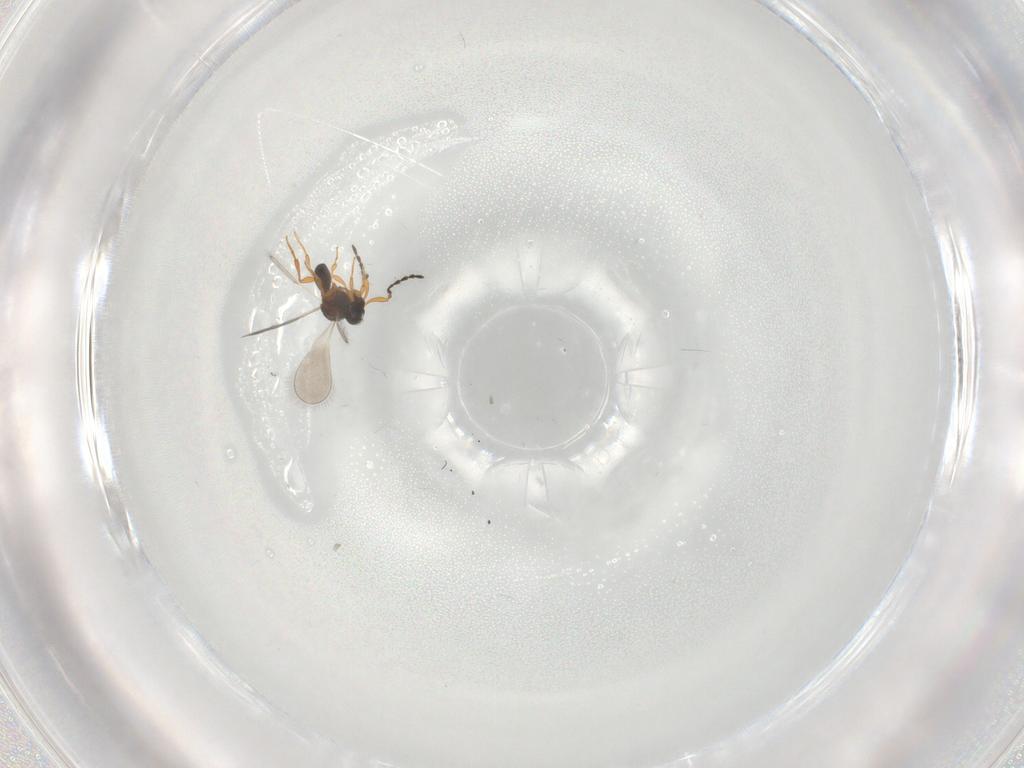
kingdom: Animalia
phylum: Arthropoda
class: Insecta
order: Hymenoptera
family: Platygastridae
